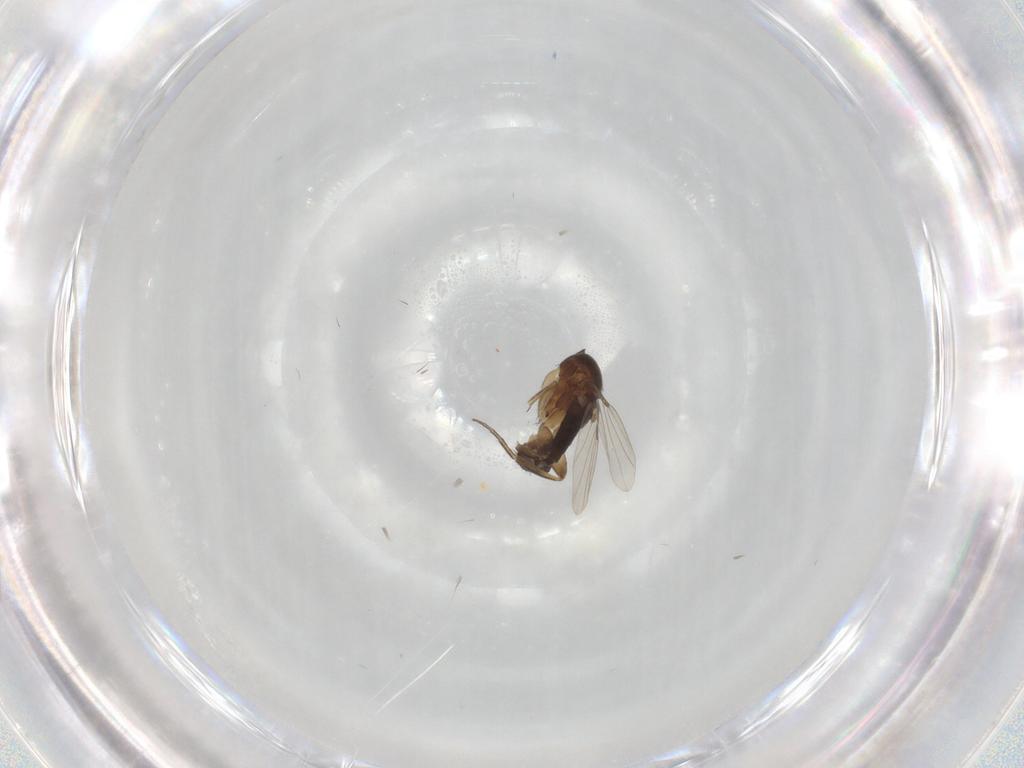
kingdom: Animalia
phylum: Arthropoda
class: Insecta
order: Diptera
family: Phoridae
